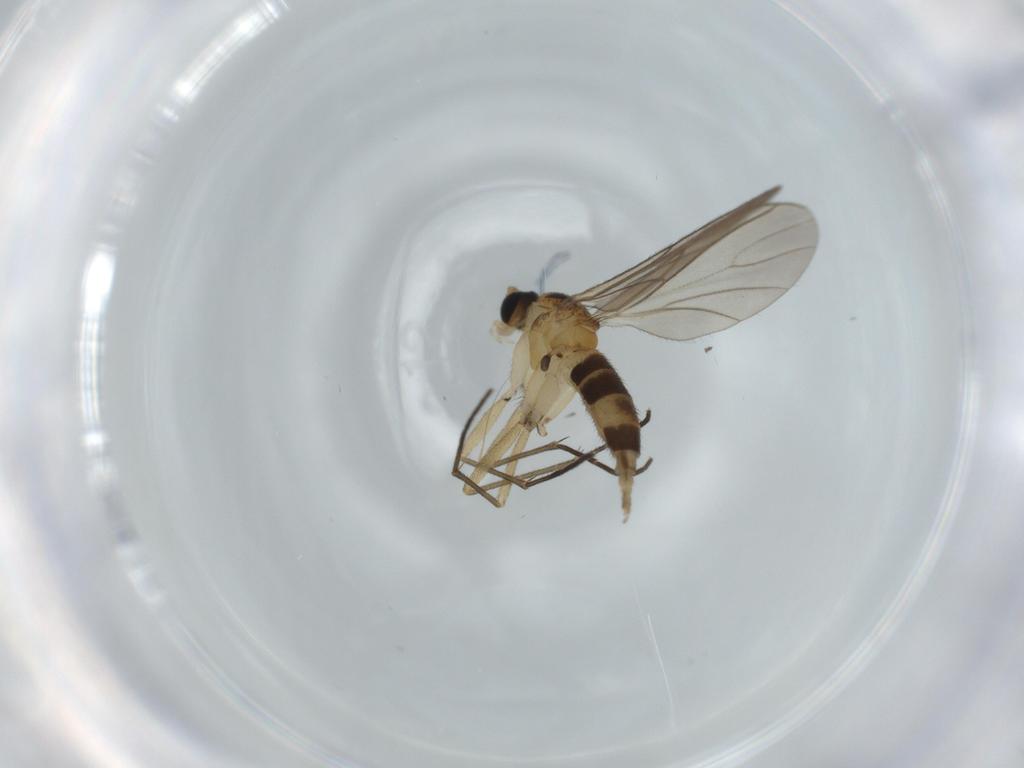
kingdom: Animalia
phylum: Arthropoda
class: Insecta
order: Diptera
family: Sciaridae
